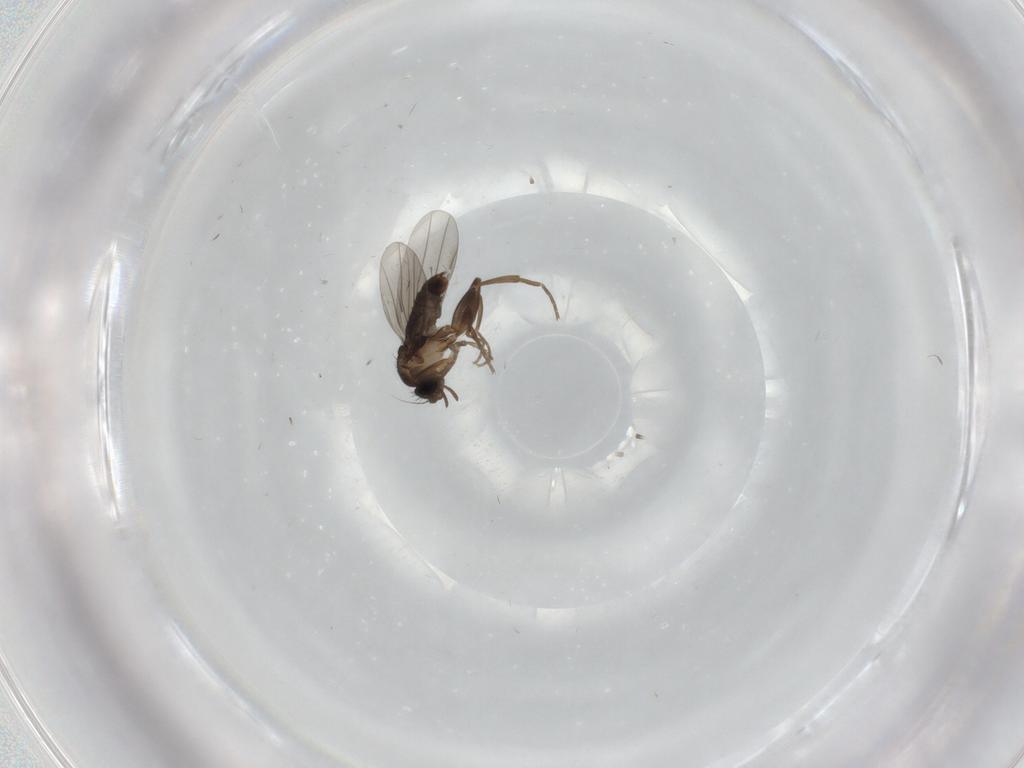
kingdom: Animalia
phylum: Arthropoda
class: Insecta
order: Diptera
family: Phoridae
